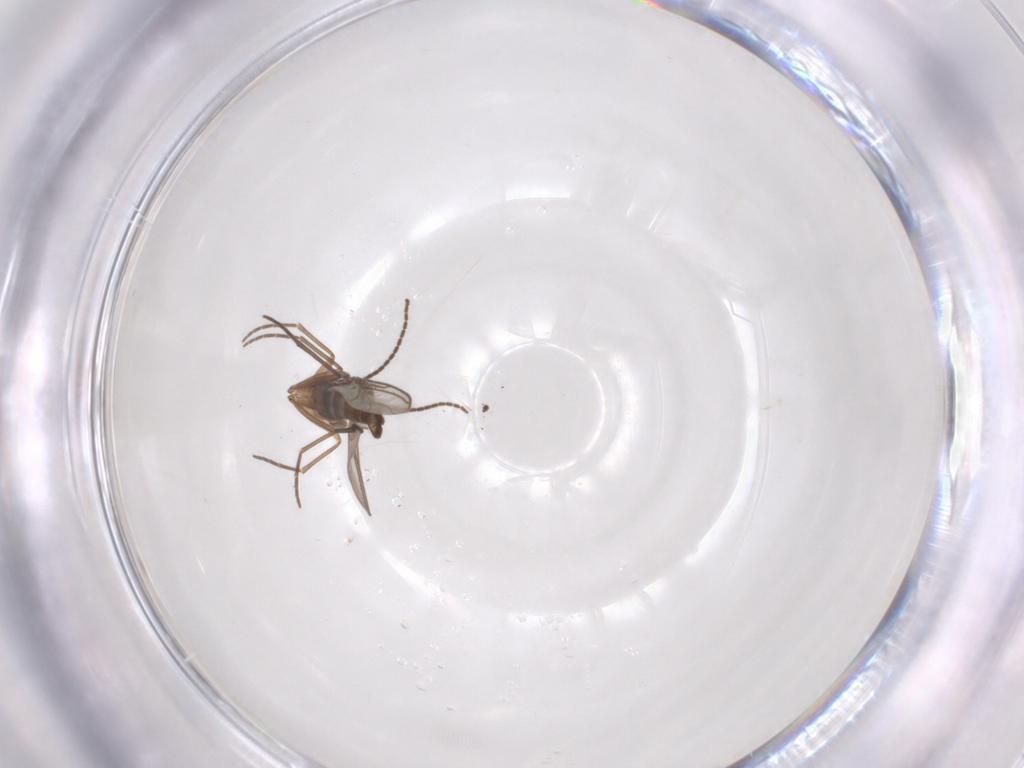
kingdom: Animalia
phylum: Arthropoda
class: Insecta
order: Diptera
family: Sciaridae
